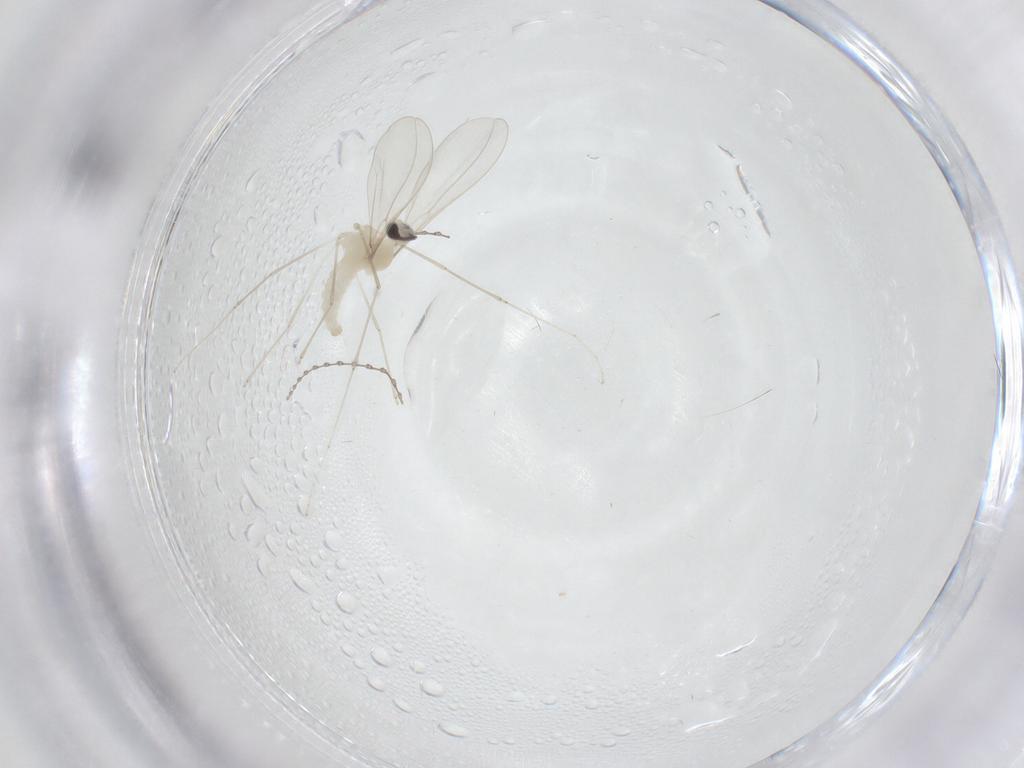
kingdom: Animalia
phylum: Arthropoda
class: Insecta
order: Diptera
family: Cecidomyiidae
